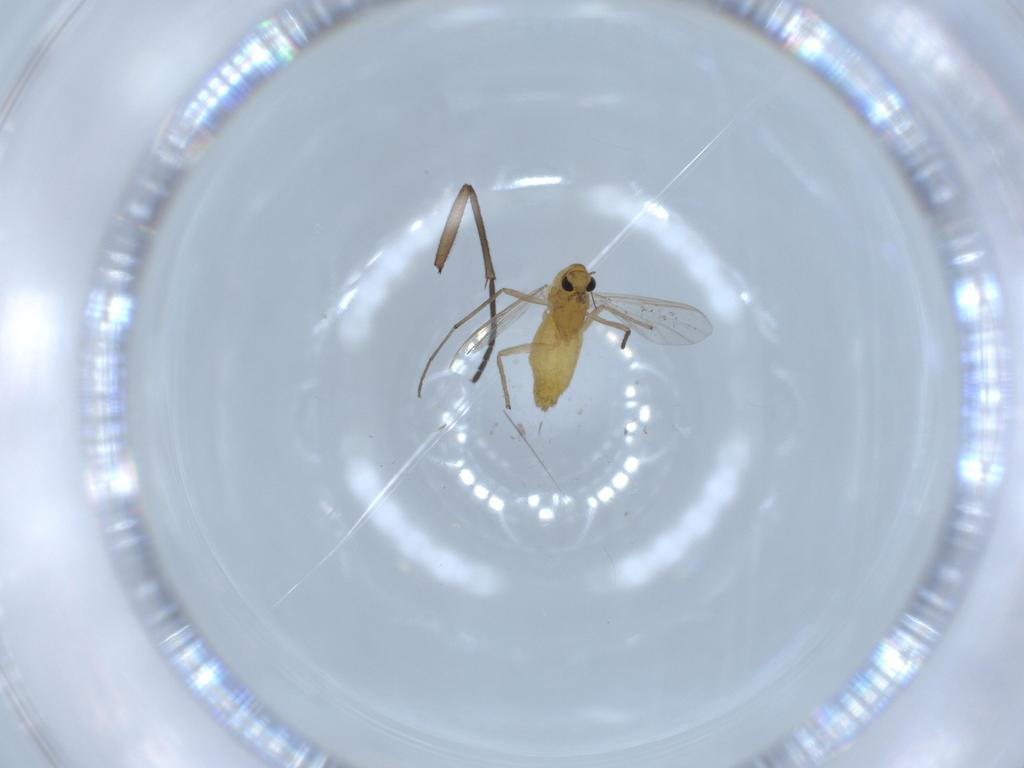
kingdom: Animalia
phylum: Arthropoda
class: Insecta
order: Diptera
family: Chironomidae
